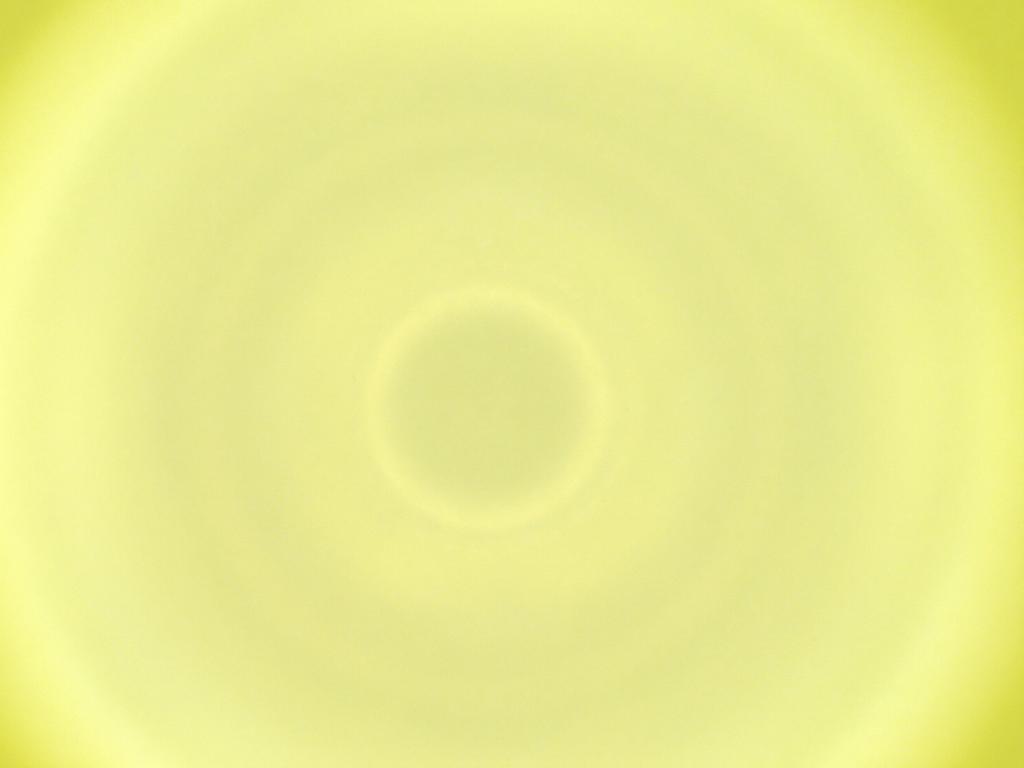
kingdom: Animalia
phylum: Arthropoda
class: Insecta
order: Diptera
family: Cecidomyiidae
